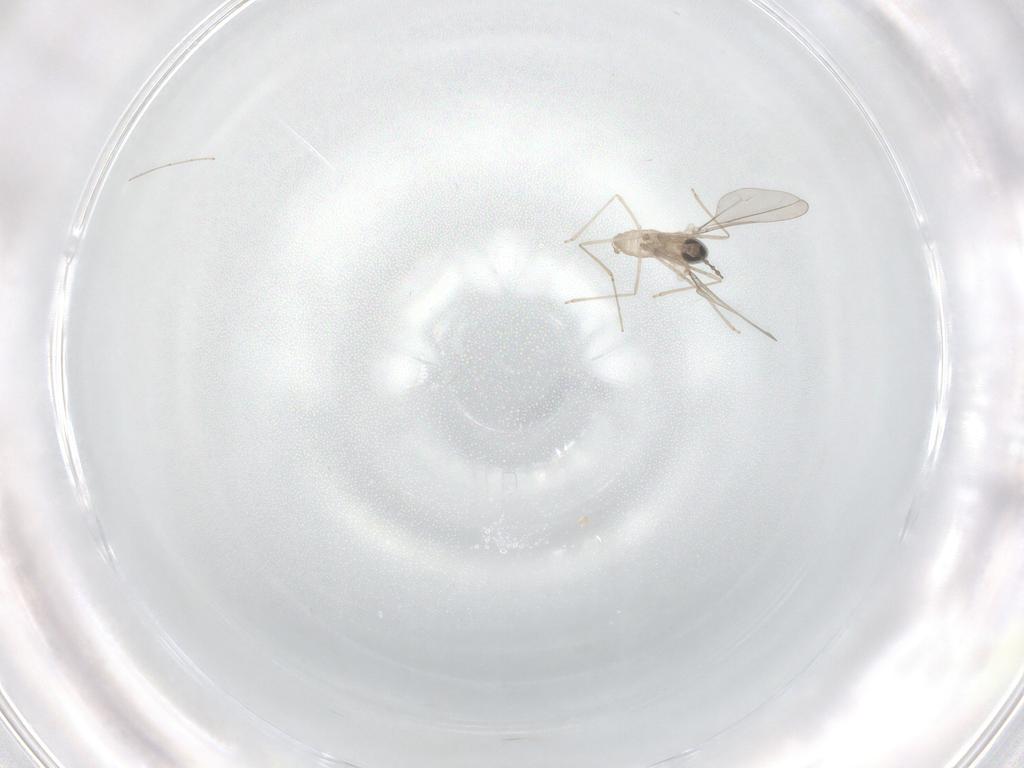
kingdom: Animalia
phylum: Arthropoda
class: Insecta
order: Diptera
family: Cecidomyiidae
